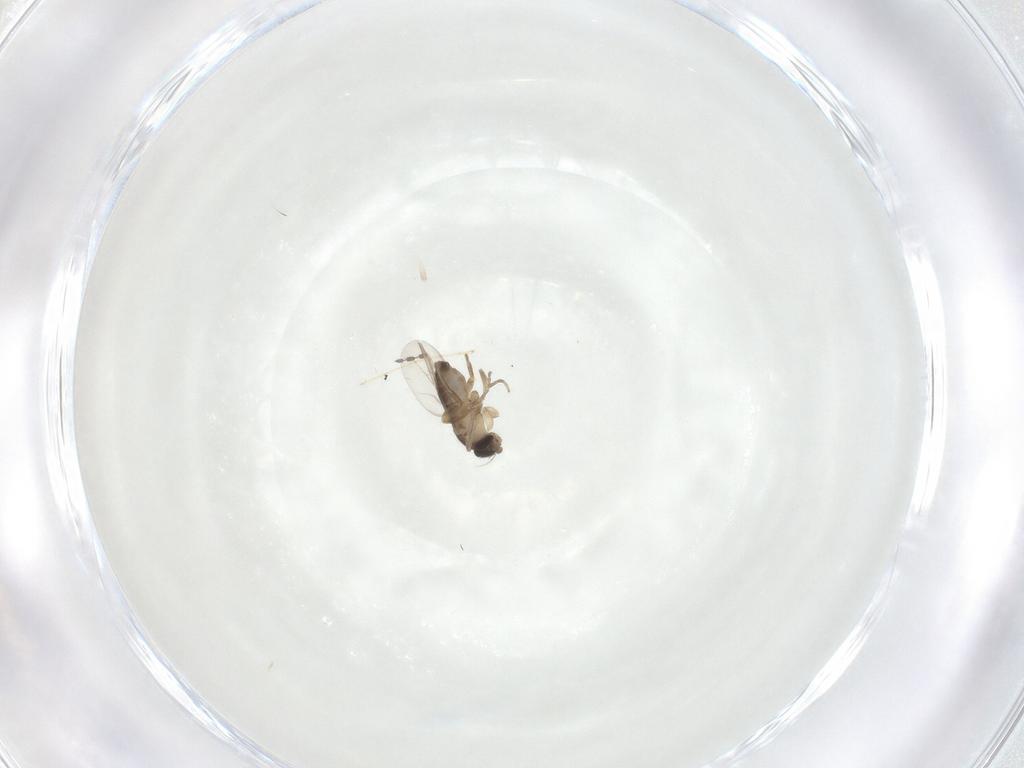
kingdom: Animalia
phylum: Arthropoda
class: Insecta
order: Diptera
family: Phoridae
